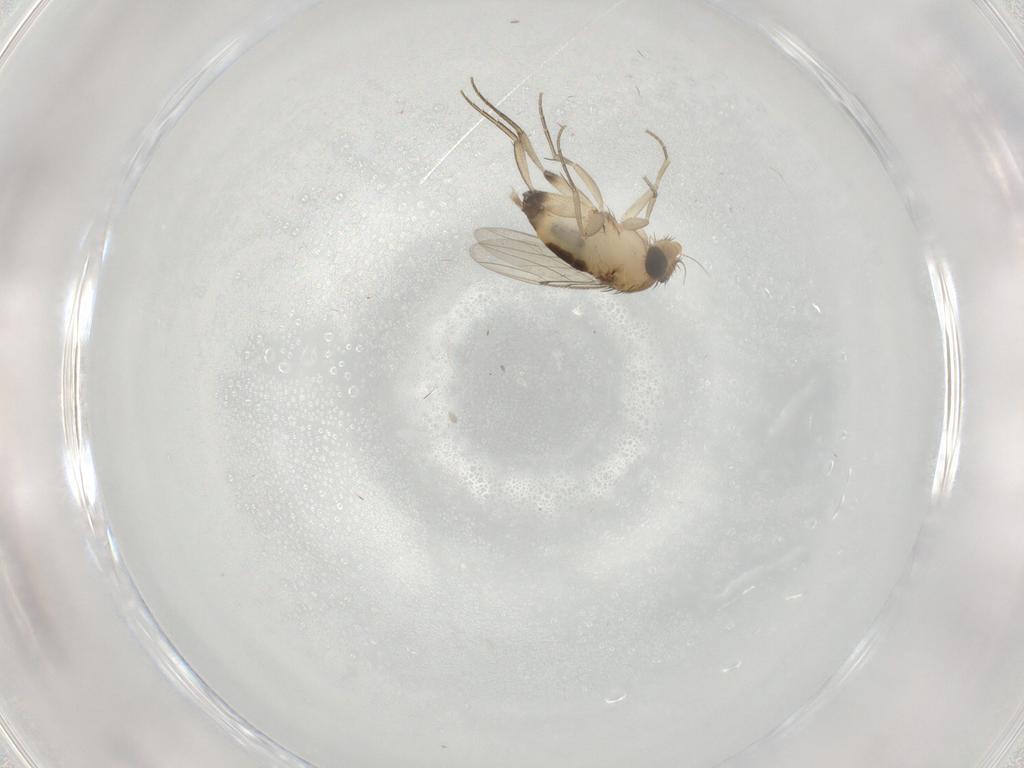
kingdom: Animalia
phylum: Arthropoda
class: Insecta
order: Diptera
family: Phoridae
